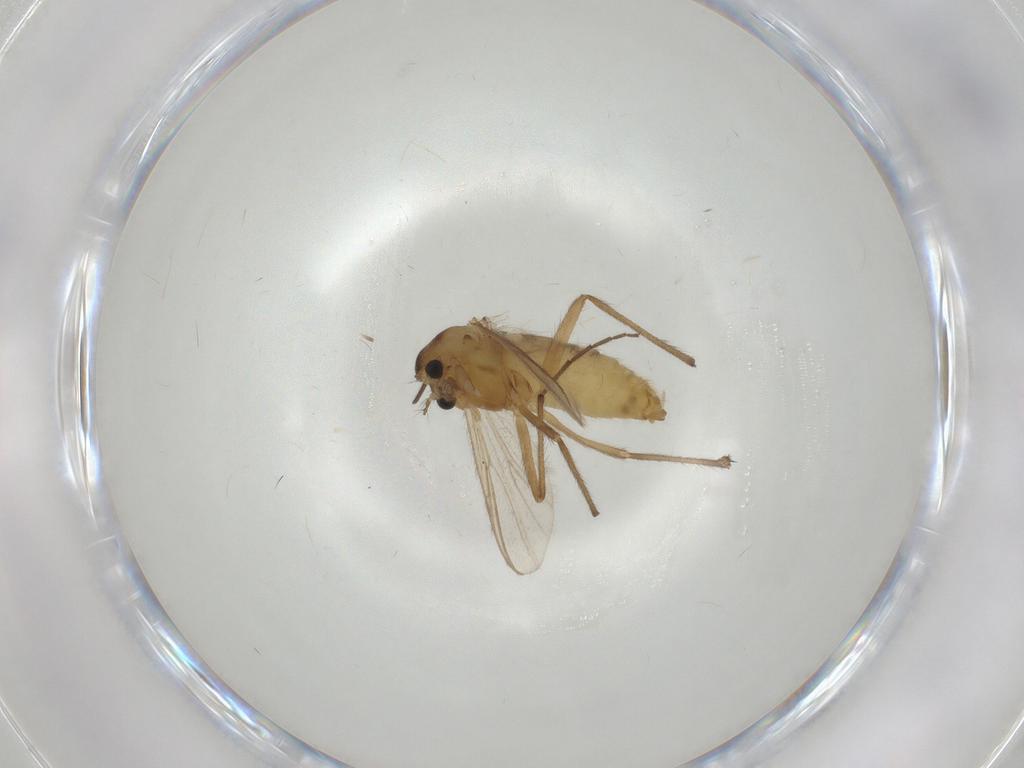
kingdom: Animalia
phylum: Arthropoda
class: Insecta
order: Diptera
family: Chironomidae
